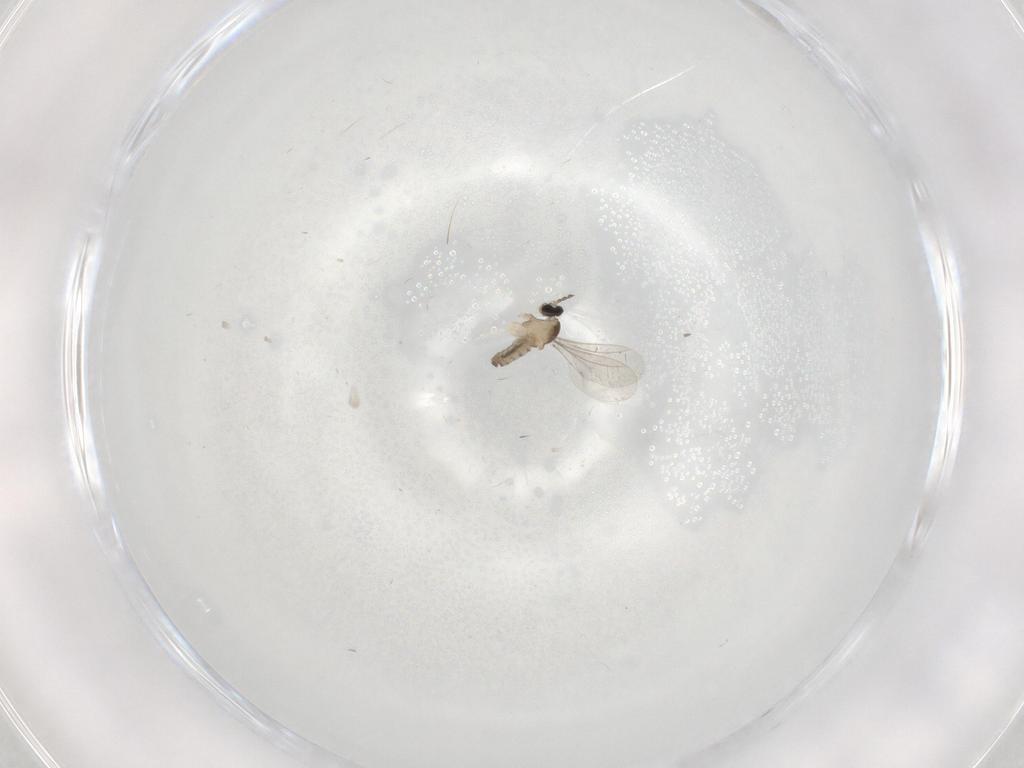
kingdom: Animalia
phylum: Arthropoda
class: Insecta
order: Diptera
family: Cecidomyiidae
